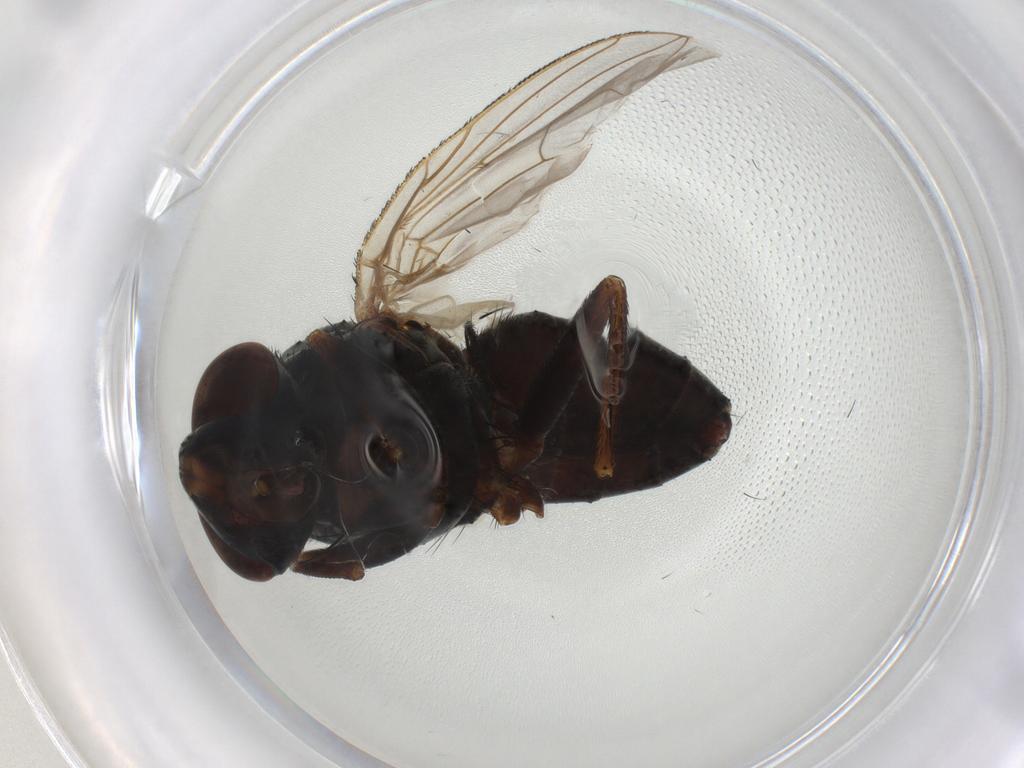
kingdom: Animalia
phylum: Arthropoda
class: Insecta
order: Diptera
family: Sarcophagidae
